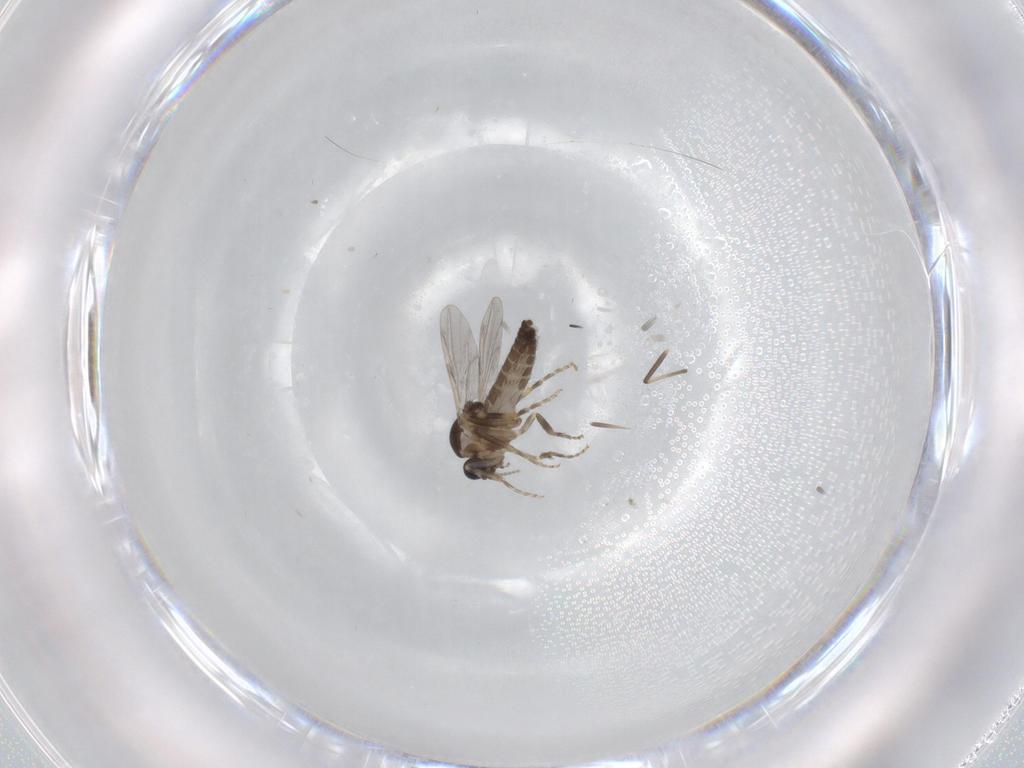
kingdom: Animalia
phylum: Arthropoda
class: Insecta
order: Diptera
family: Ceratopogonidae
